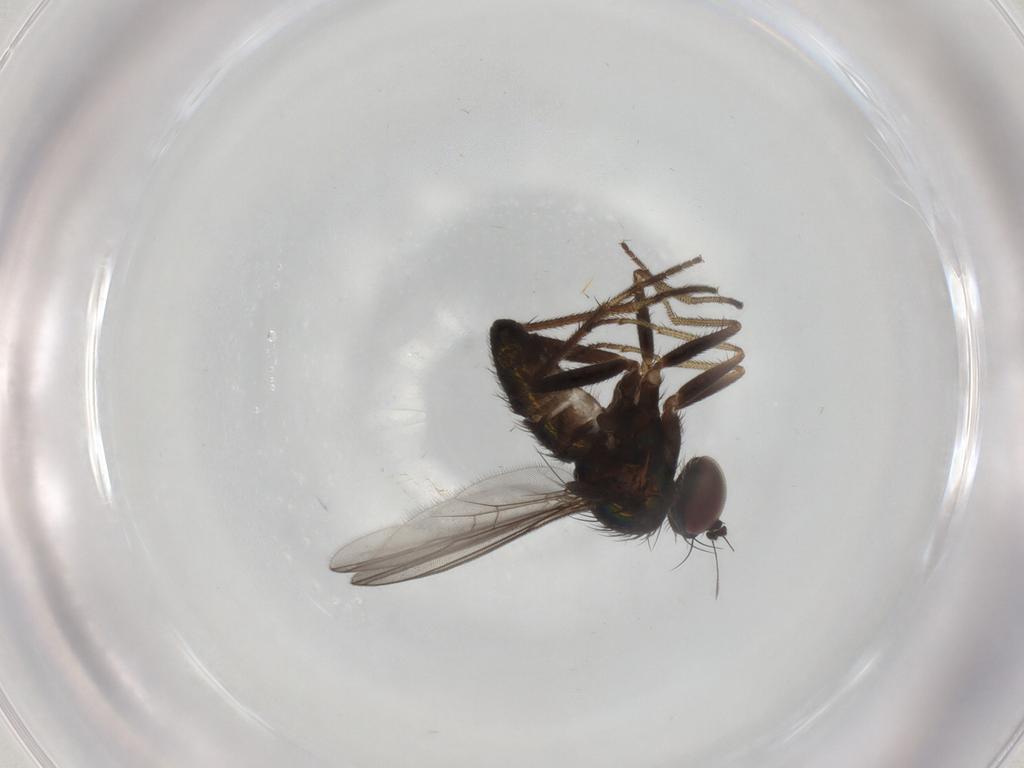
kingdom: Animalia
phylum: Arthropoda
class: Insecta
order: Diptera
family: Dolichopodidae
